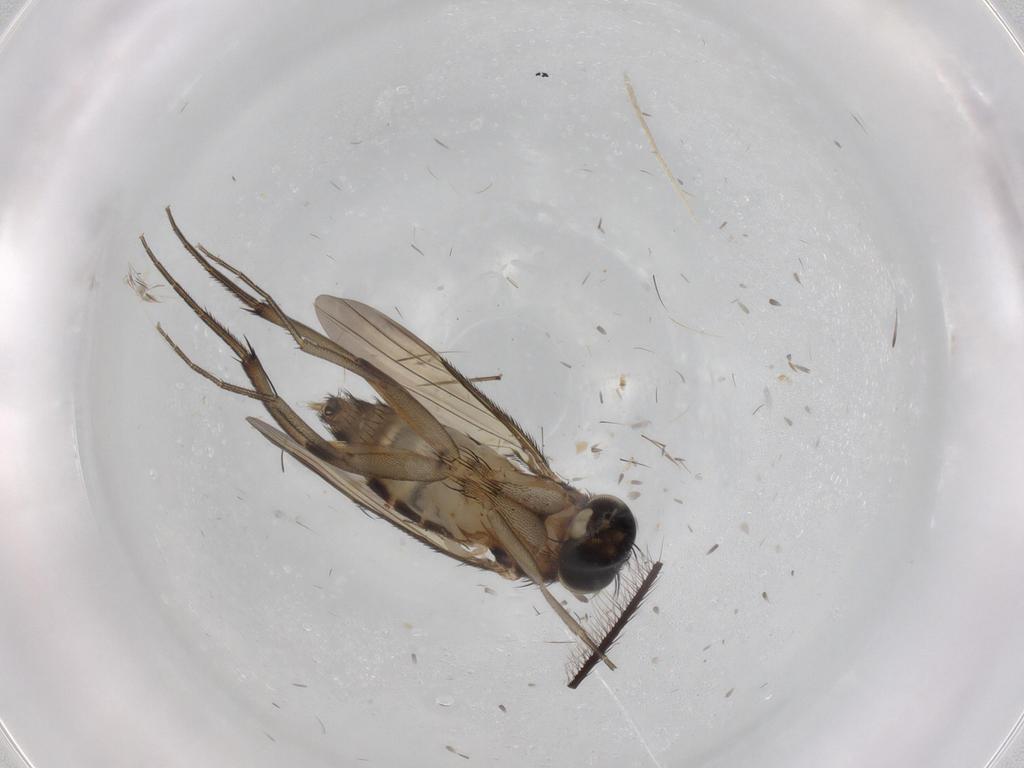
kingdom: Animalia
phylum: Arthropoda
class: Insecta
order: Diptera
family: Phoridae
